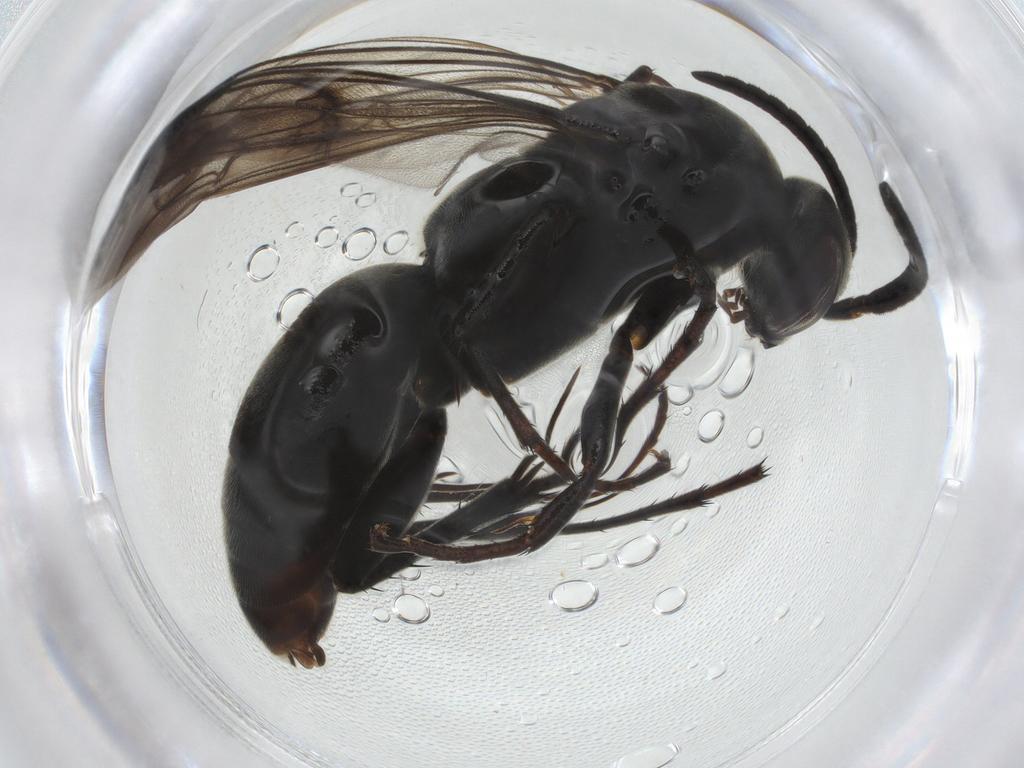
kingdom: Animalia
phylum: Arthropoda
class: Insecta
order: Hymenoptera
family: Pompilidae
